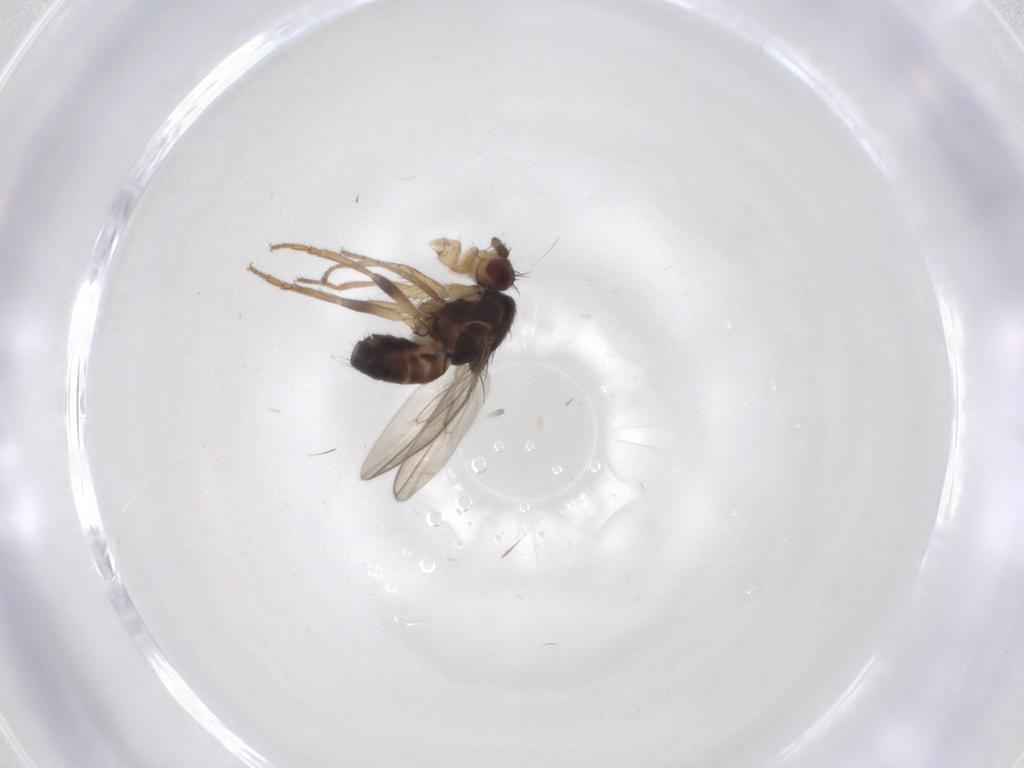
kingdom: Animalia
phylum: Arthropoda
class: Insecta
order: Diptera
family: Sphaeroceridae
